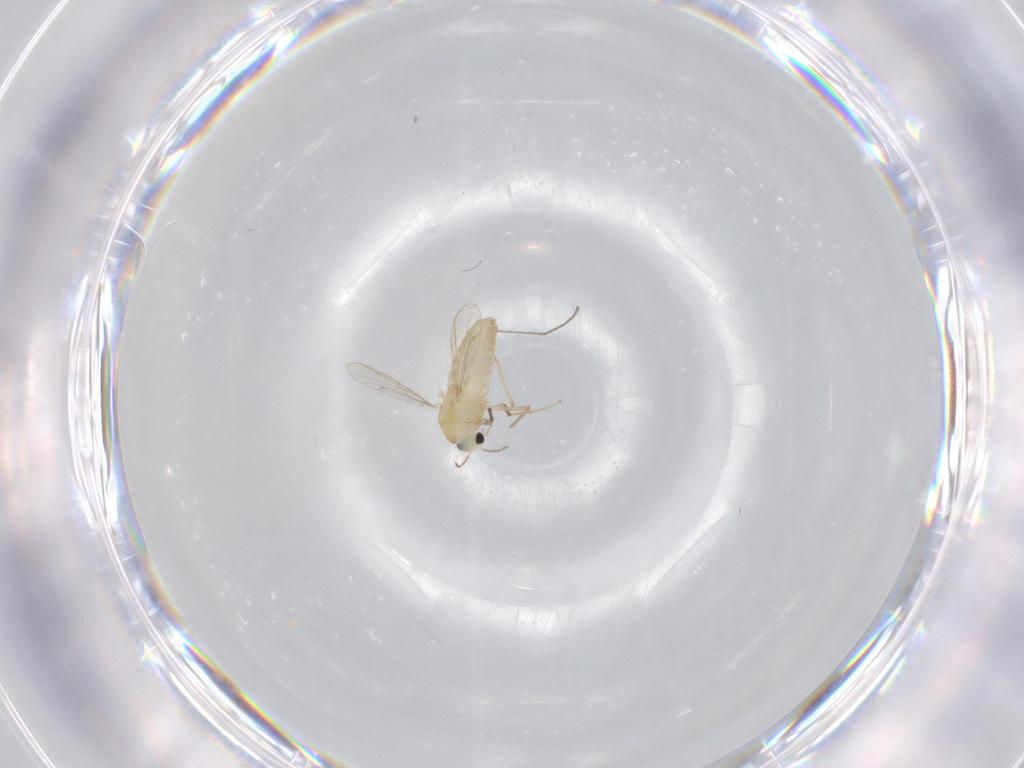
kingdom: Animalia
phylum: Arthropoda
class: Insecta
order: Diptera
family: Chironomidae
